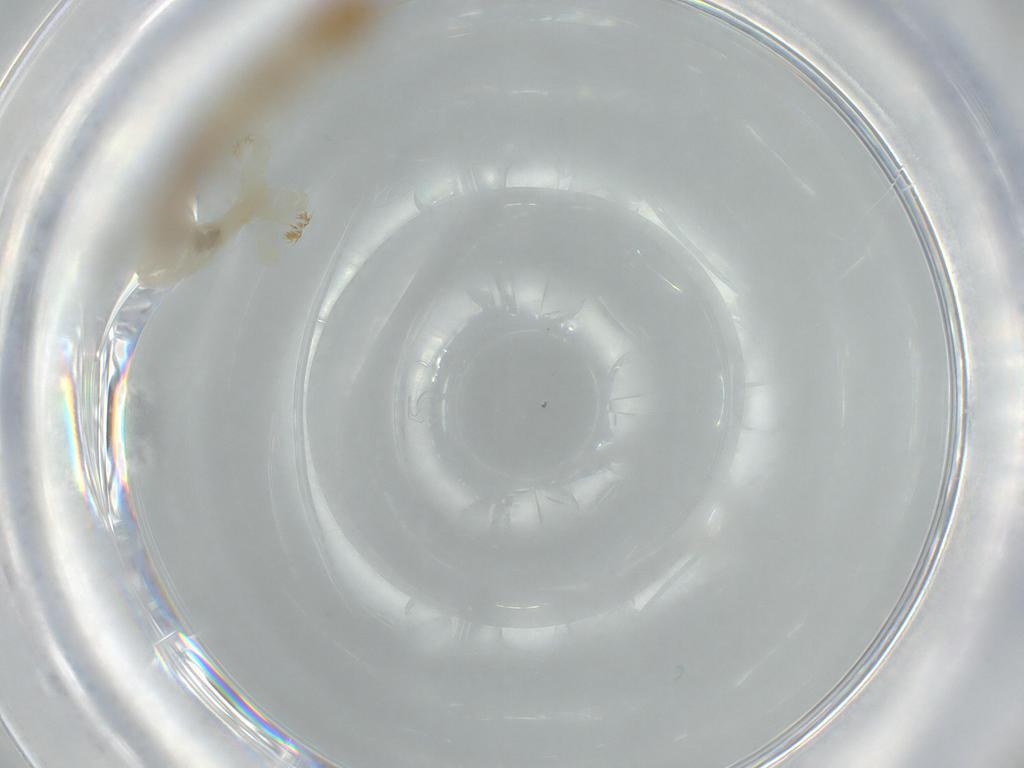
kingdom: Animalia
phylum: Arthropoda
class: Insecta
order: Diptera
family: Chironomidae
